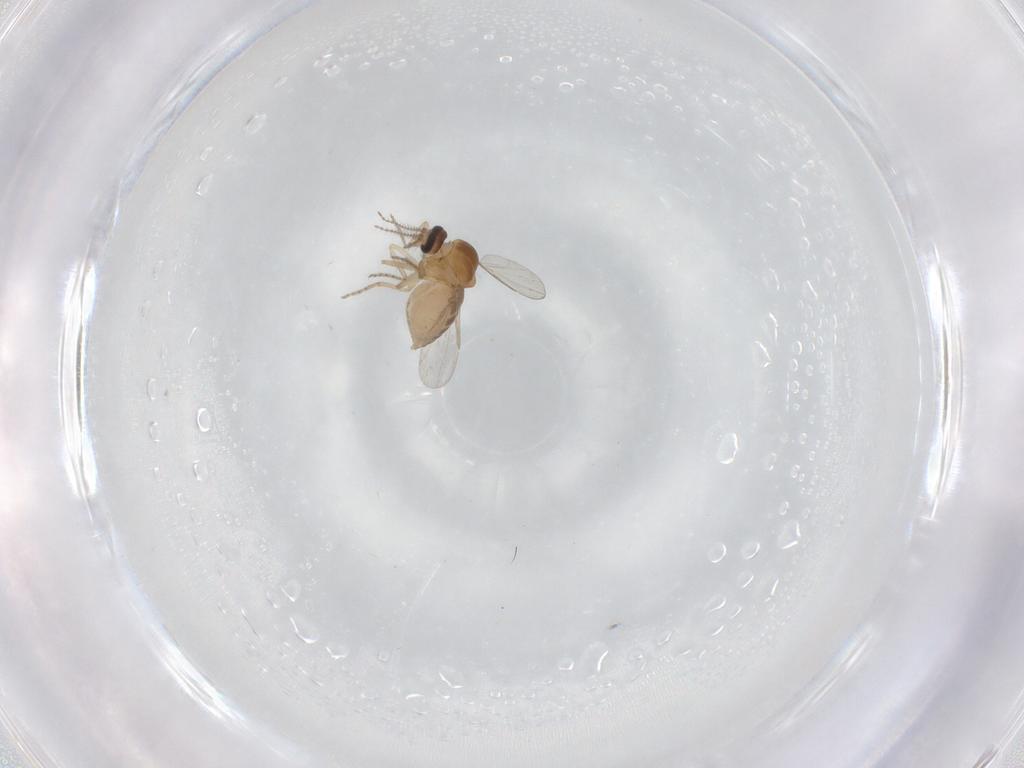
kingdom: Animalia
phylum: Arthropoda
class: Insecta
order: Diptera
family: Ceratopogonidae
